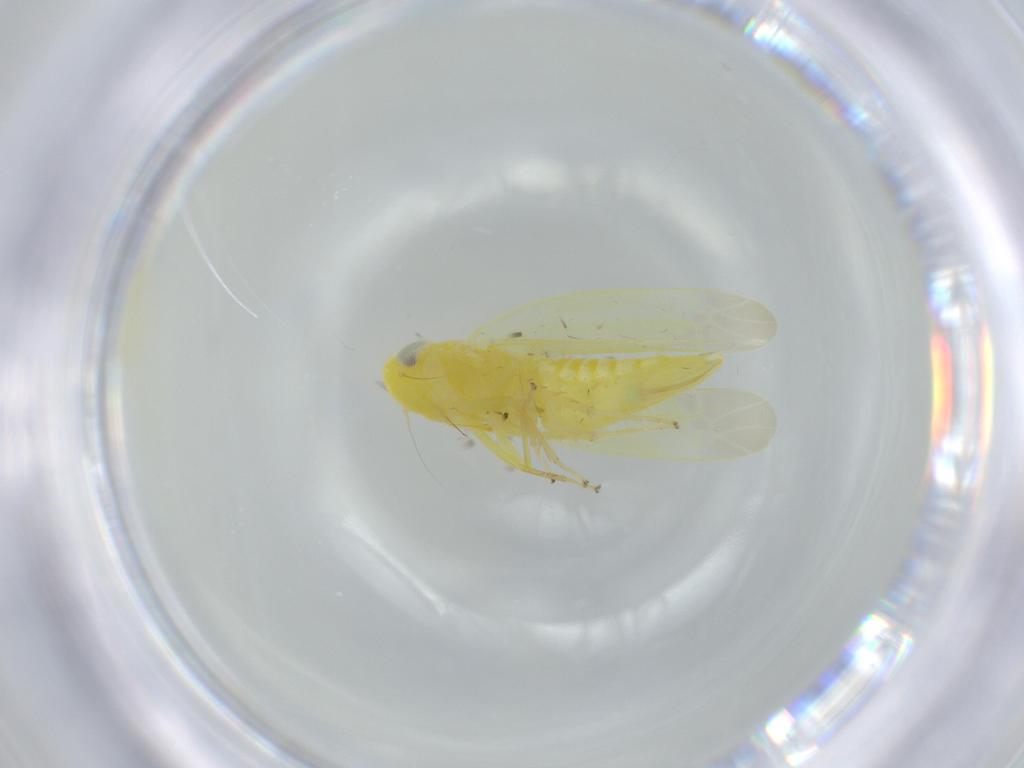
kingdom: Animalia
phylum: Arthropoda
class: Insecta
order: Hemiptera
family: Cicadellidae
